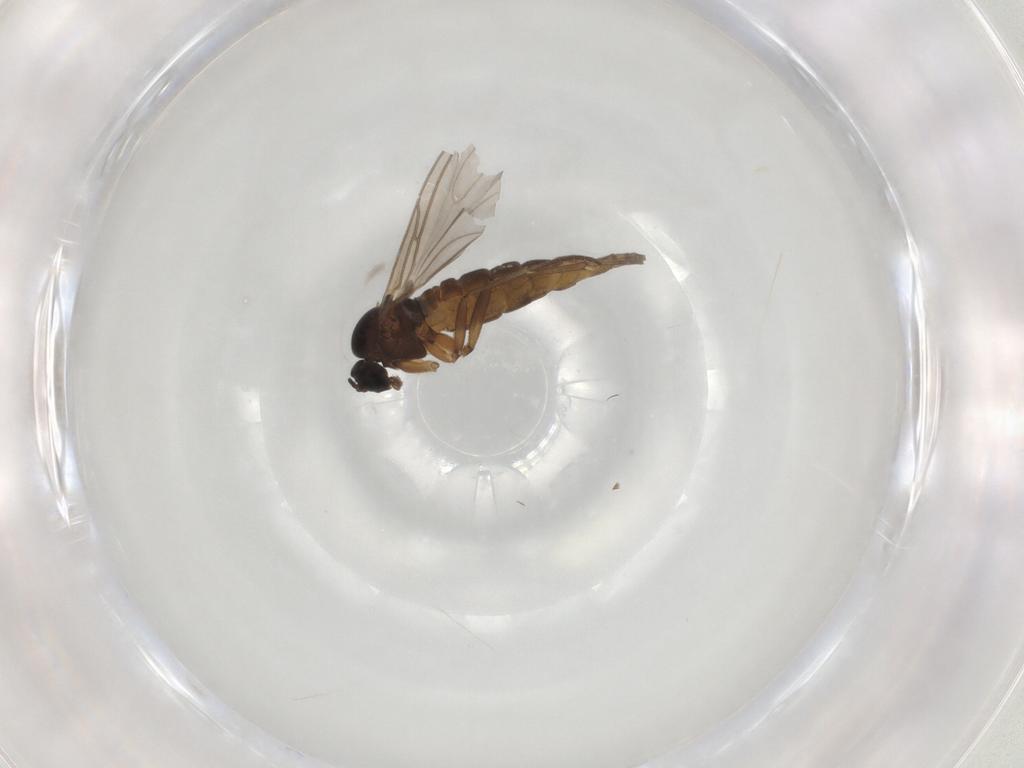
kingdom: Animalia
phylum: Arthropoda
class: Insecta
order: Diptera
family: Sciaridae
